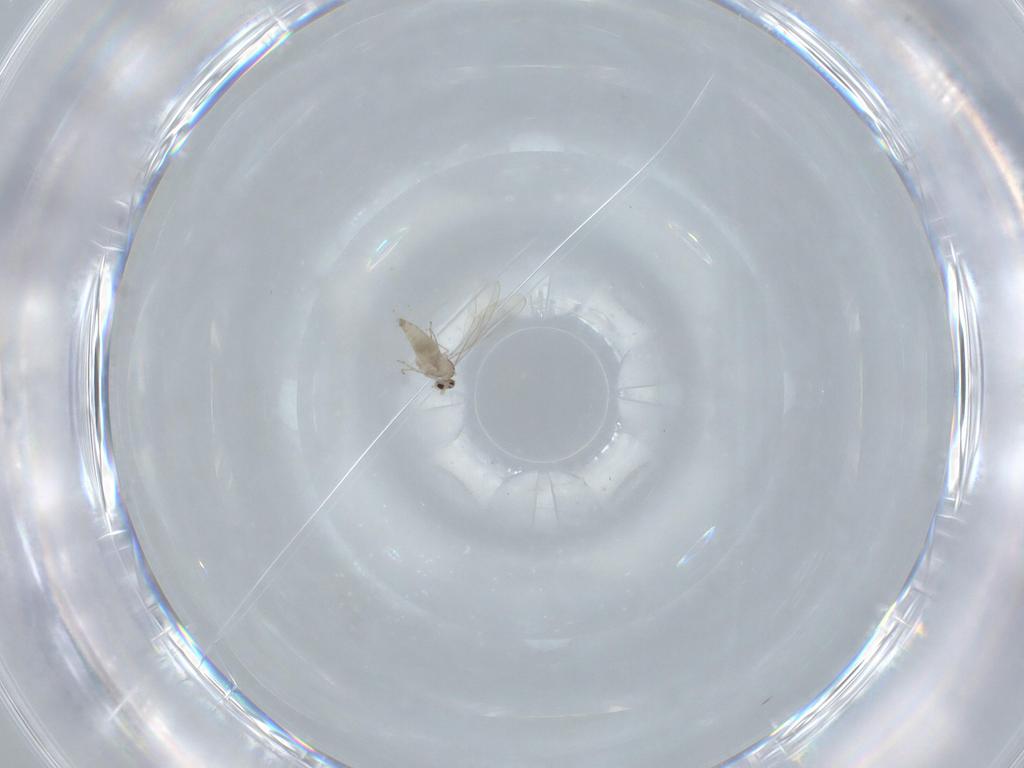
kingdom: Animalia
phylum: Arthropoda
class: Insecta
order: Diptera
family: Cecidomyiidae
